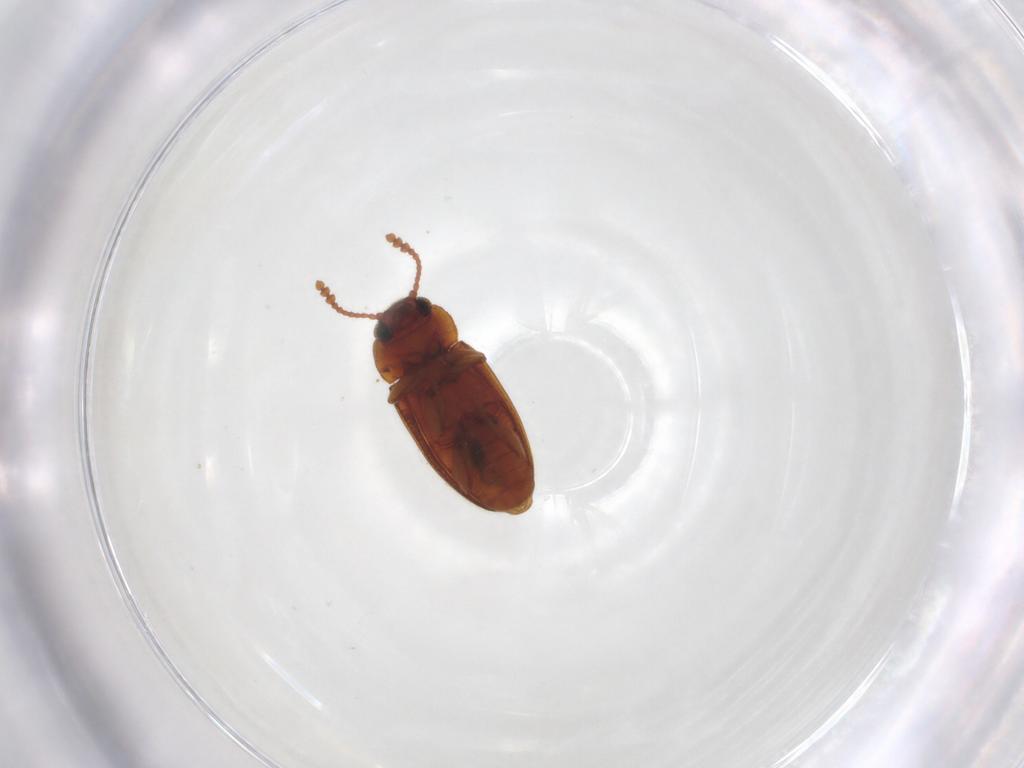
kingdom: Animalia
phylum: Arthropoda
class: Insecta
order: Coleoptera
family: Erotylidae
